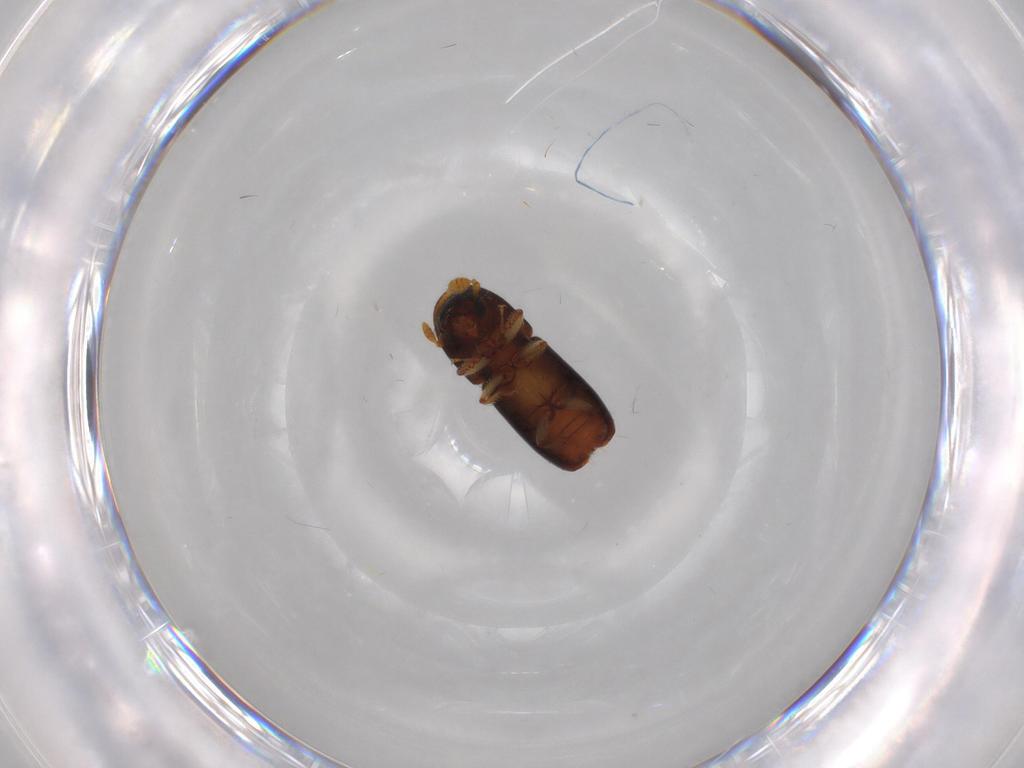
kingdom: Animalia
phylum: Arthropoda
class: Insecta
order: Coleoptera
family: Curculionidae
